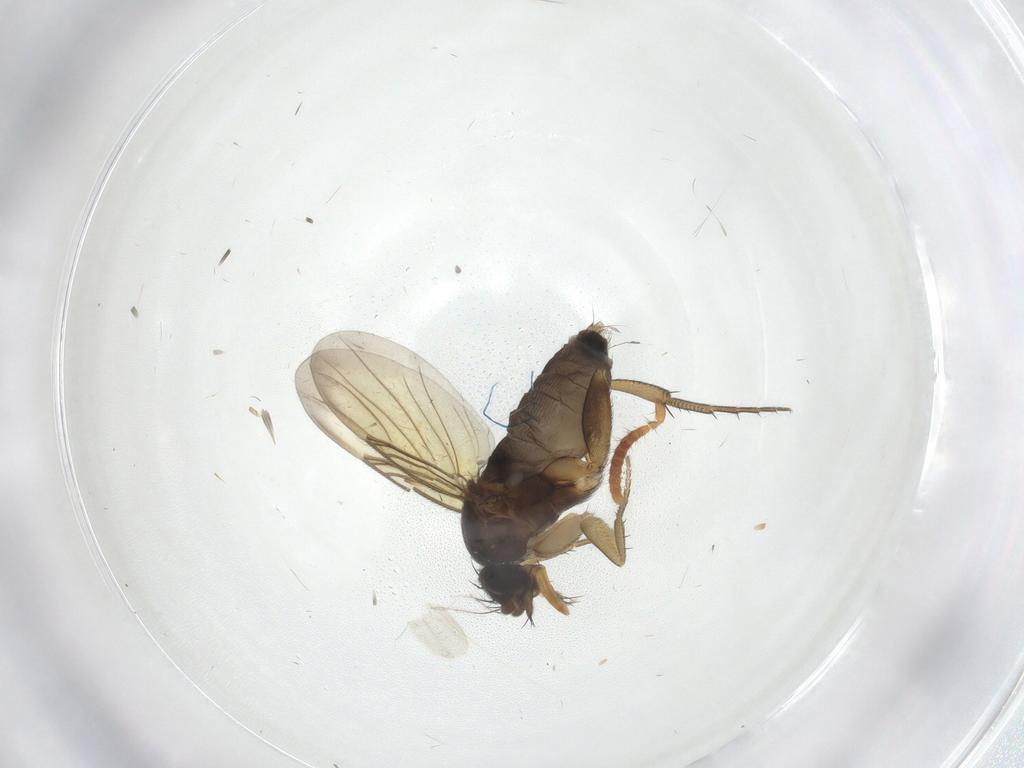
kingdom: Animalia
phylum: Arthropoda
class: Insecta
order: Diptera
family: Phoridae
